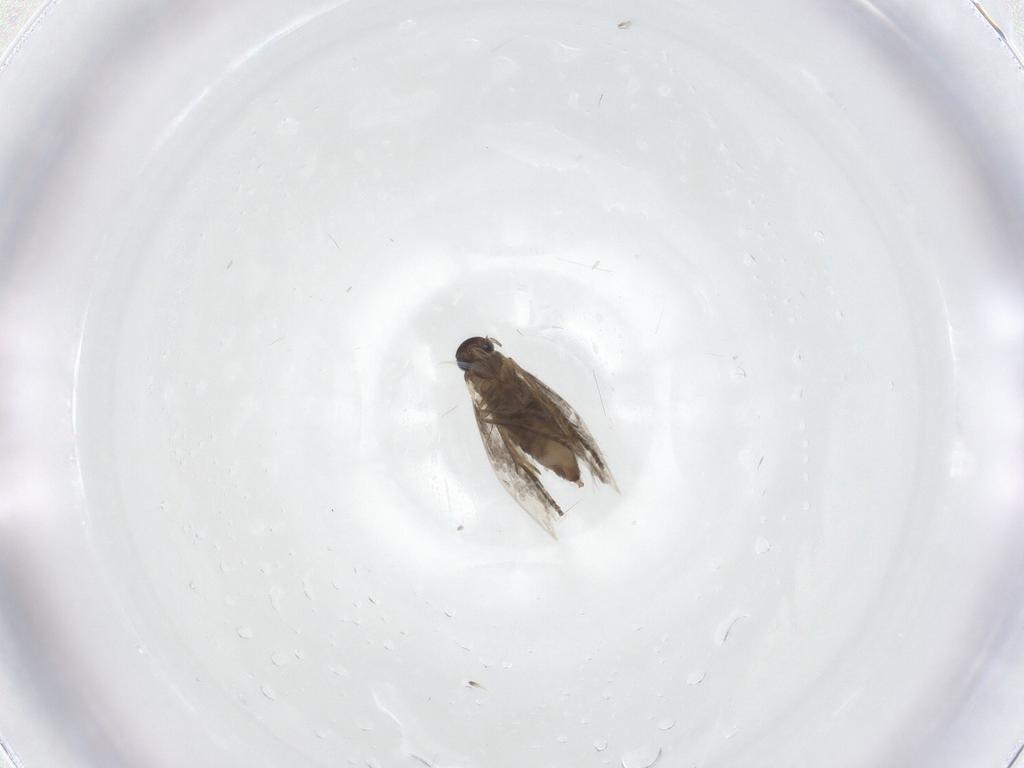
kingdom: Animalia
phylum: Arthropoda
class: Insecta
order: Lepidoptera
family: Heliozelidae
